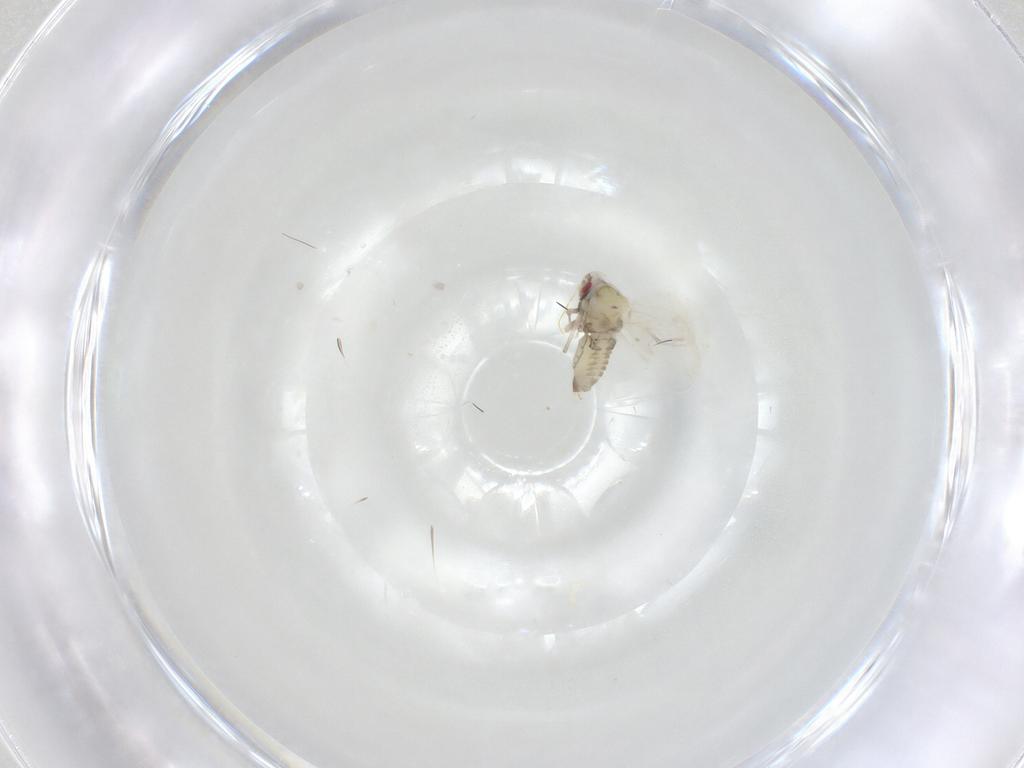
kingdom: Animalia
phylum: Arthropoda
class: Insecta
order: Hemiptera
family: Aleyrodidae
